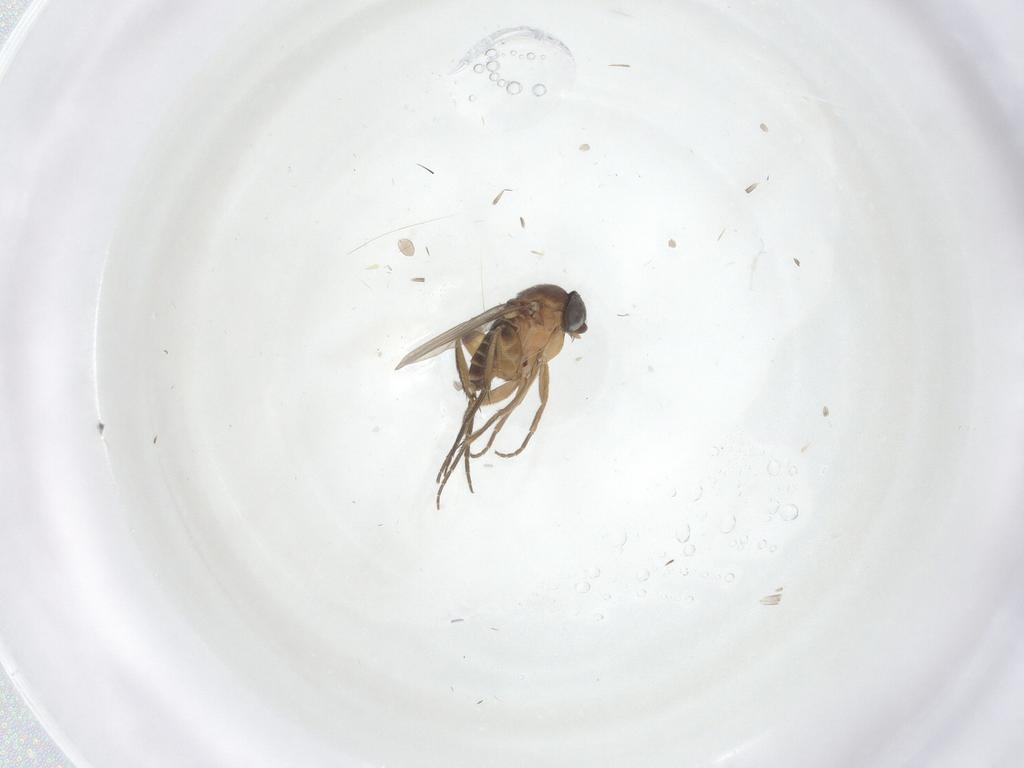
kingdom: Animalia
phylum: Arthropoda
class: Insecta
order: Diptera
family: Phoridae
